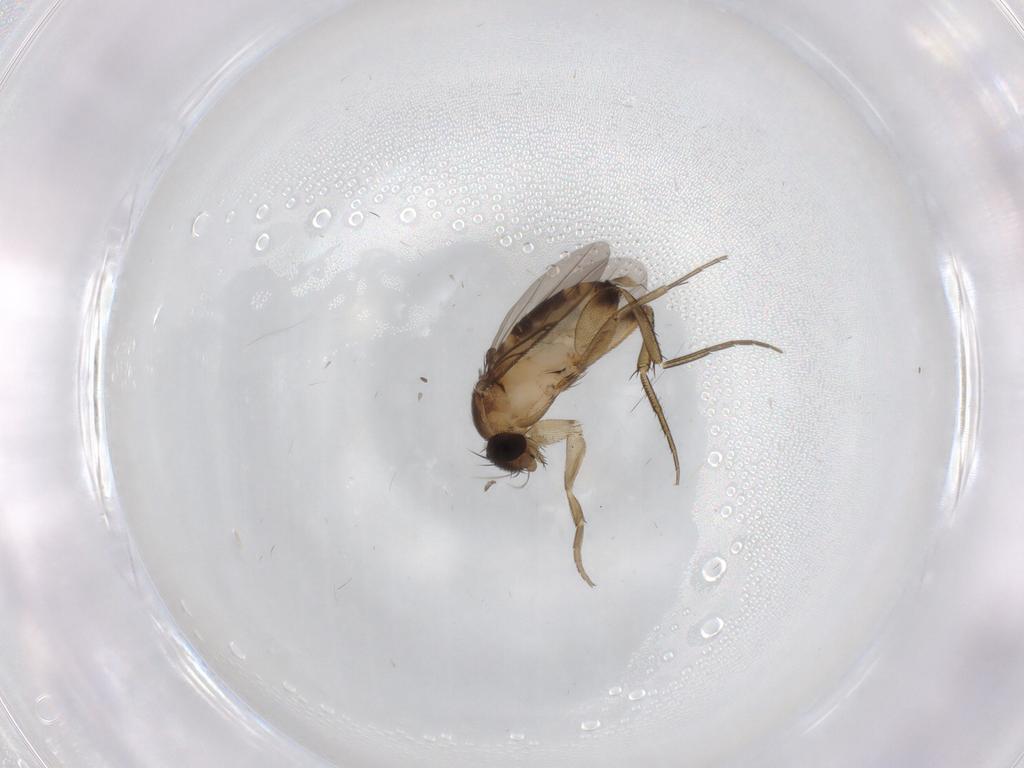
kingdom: Animalia
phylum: Arthropoda
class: Insecta
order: Diptera
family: Phoridae
